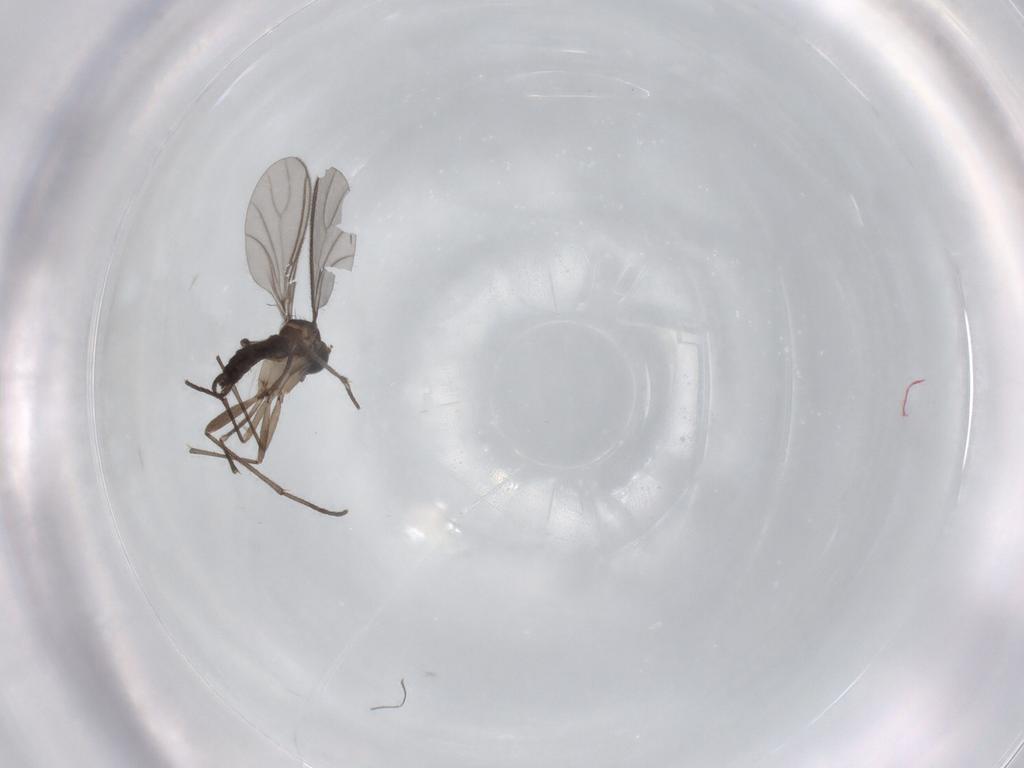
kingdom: Animalia
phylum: Arthropoda
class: Insecta
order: Diptera
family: Sciaridae
